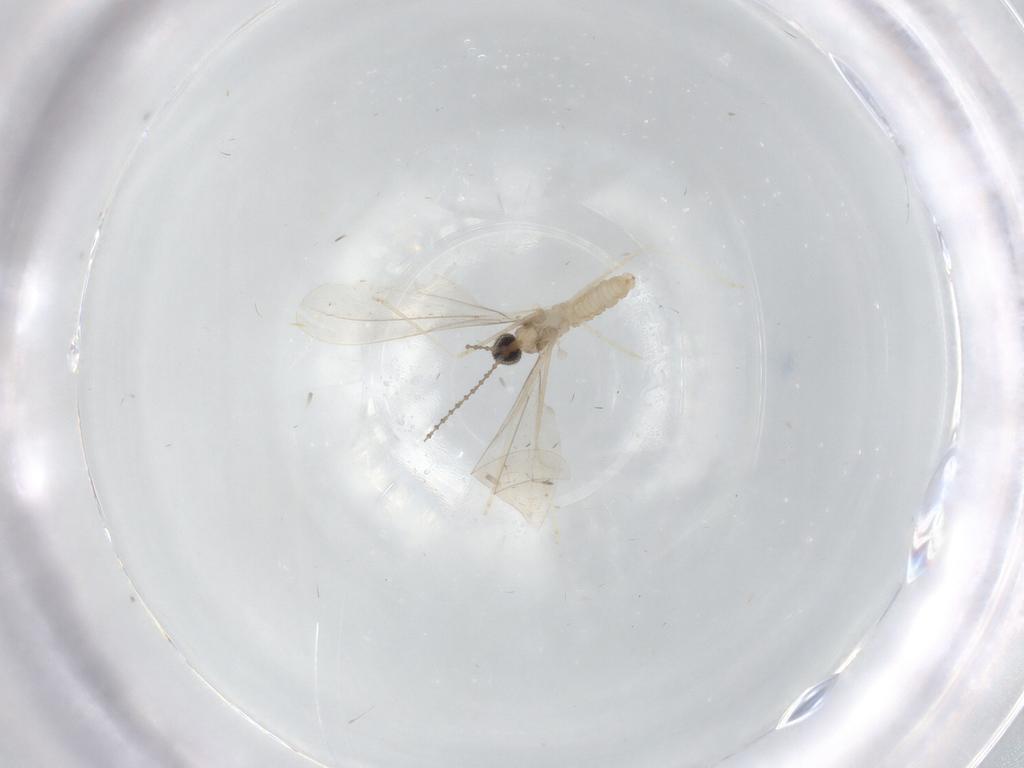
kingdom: Animalia
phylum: Arthropoda
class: Insecta
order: Diptera
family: Cecidomyiidae
